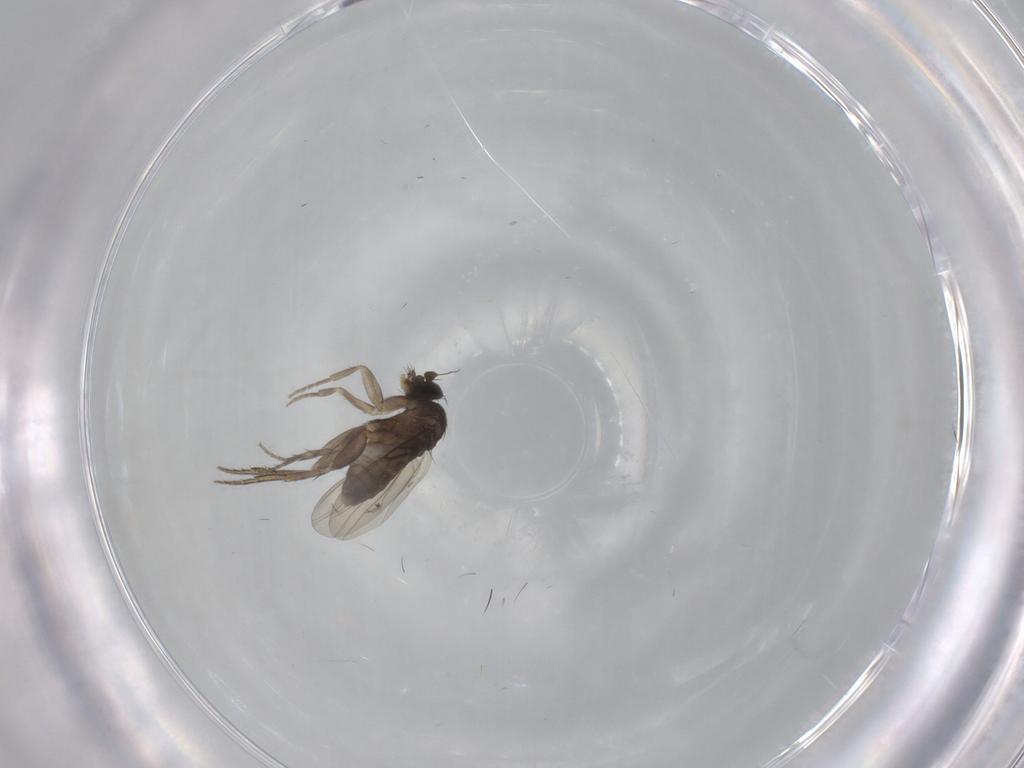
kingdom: Animalia
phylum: Arthropoda
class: Insecta
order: Diptera
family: Phoridae
